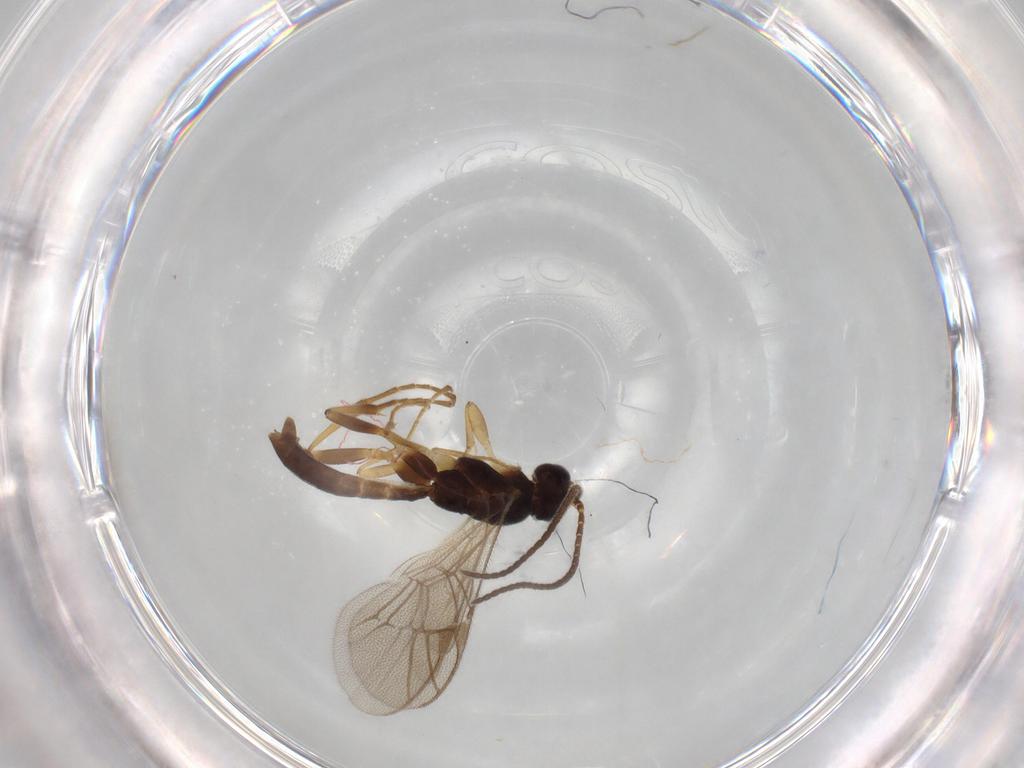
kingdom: Animalia
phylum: Arthropoda
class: Insecta
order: Hymenoptera
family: Ichneumonidae
